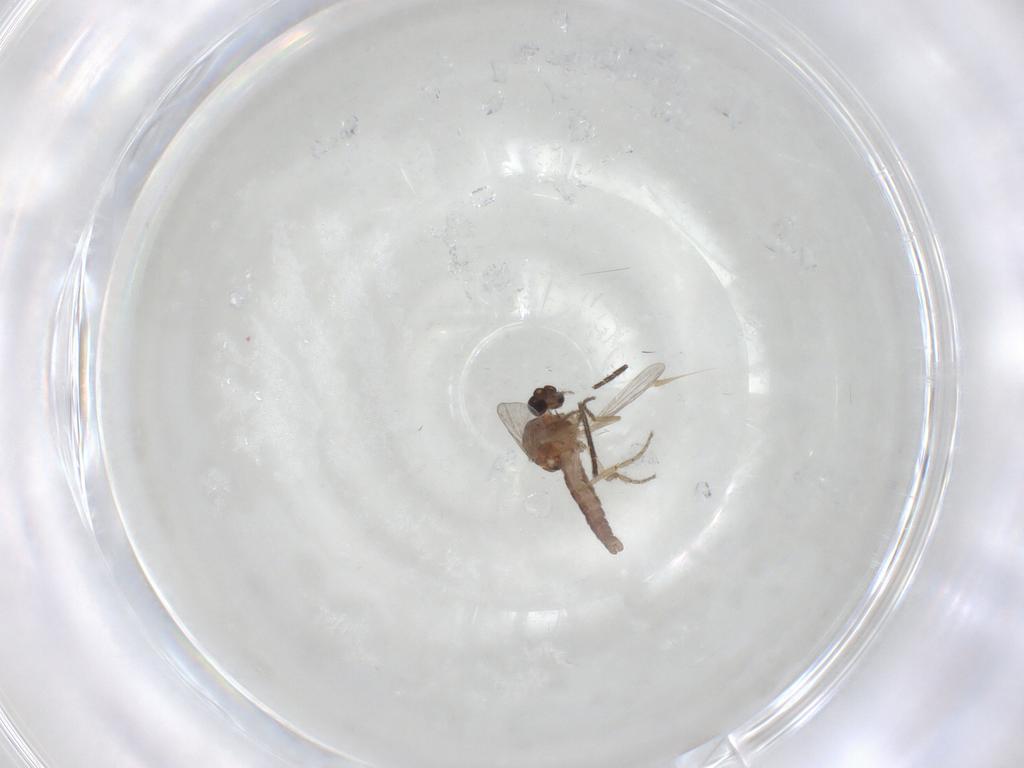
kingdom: Animalia
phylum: Arthropoda
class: Insecta
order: Diptera
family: Ceratopogonidae
